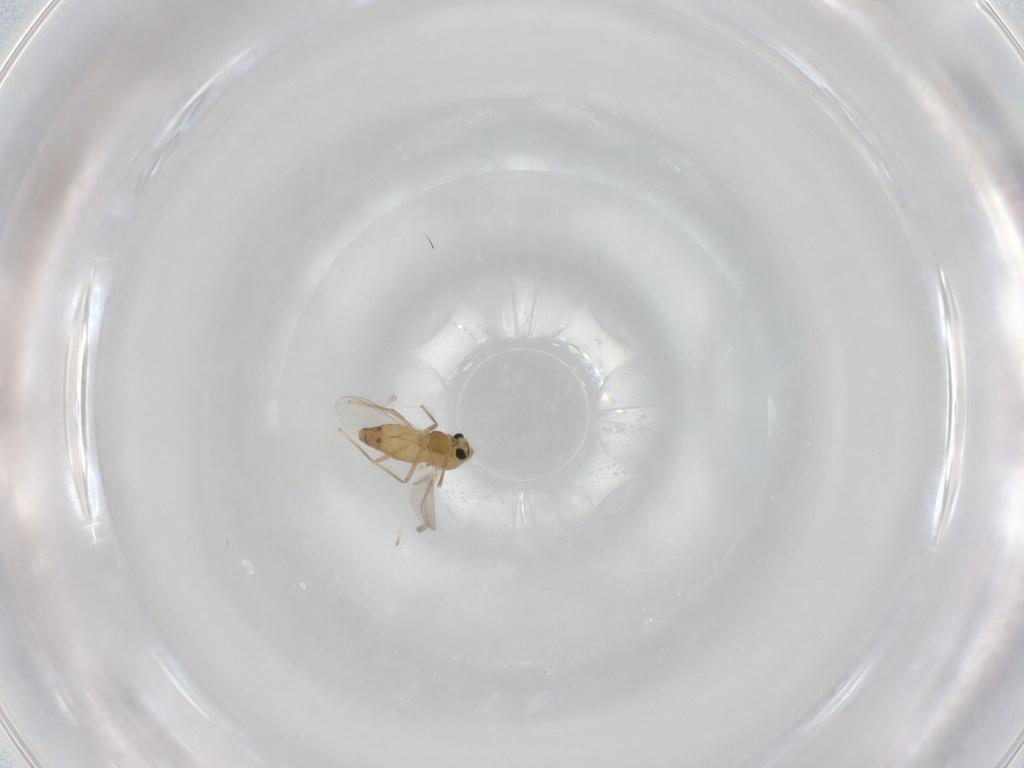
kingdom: Animalia
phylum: Arthropoda
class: Insecta
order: Diptera
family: Chironomidae
